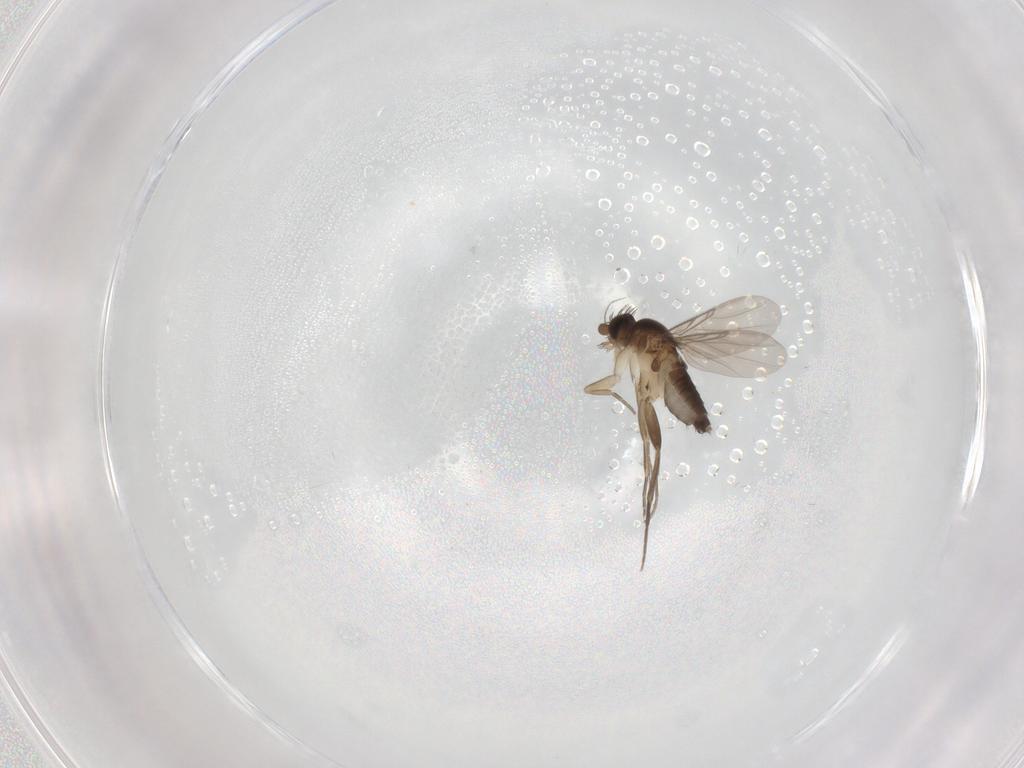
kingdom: Animalia
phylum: Arthropoda
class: Insecta
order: Diptera
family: Phoridae
